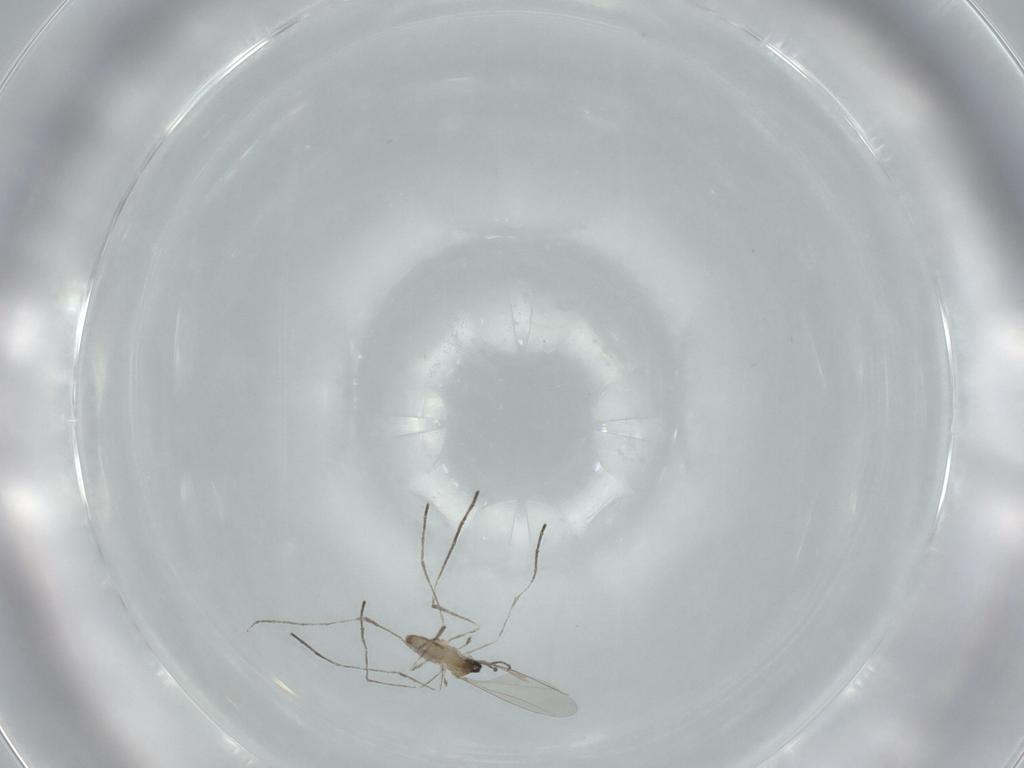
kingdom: Animalia
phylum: Arthropoda
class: Insecta
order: Diptera
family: Cecidomyiidae
